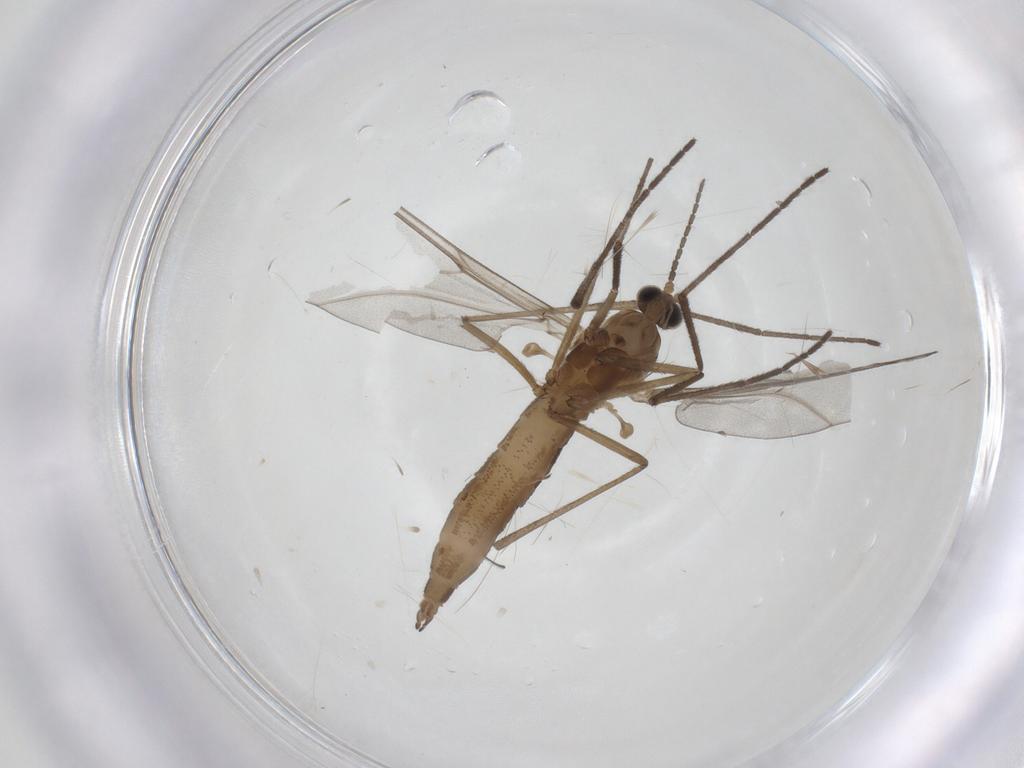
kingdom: Animalia
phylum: Arthropoda
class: Insecta
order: Diptera
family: Cecidomyiidae
